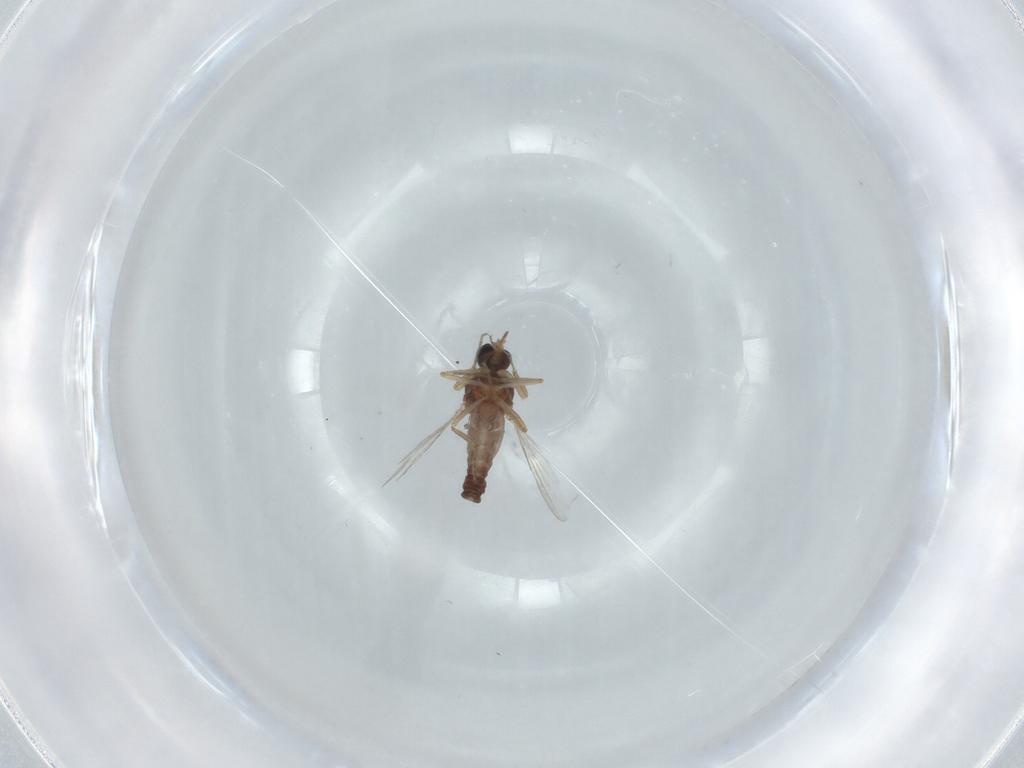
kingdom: Animalia
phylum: Arthropoda
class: Insecta
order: Diptera
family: Ceratopogonidae
